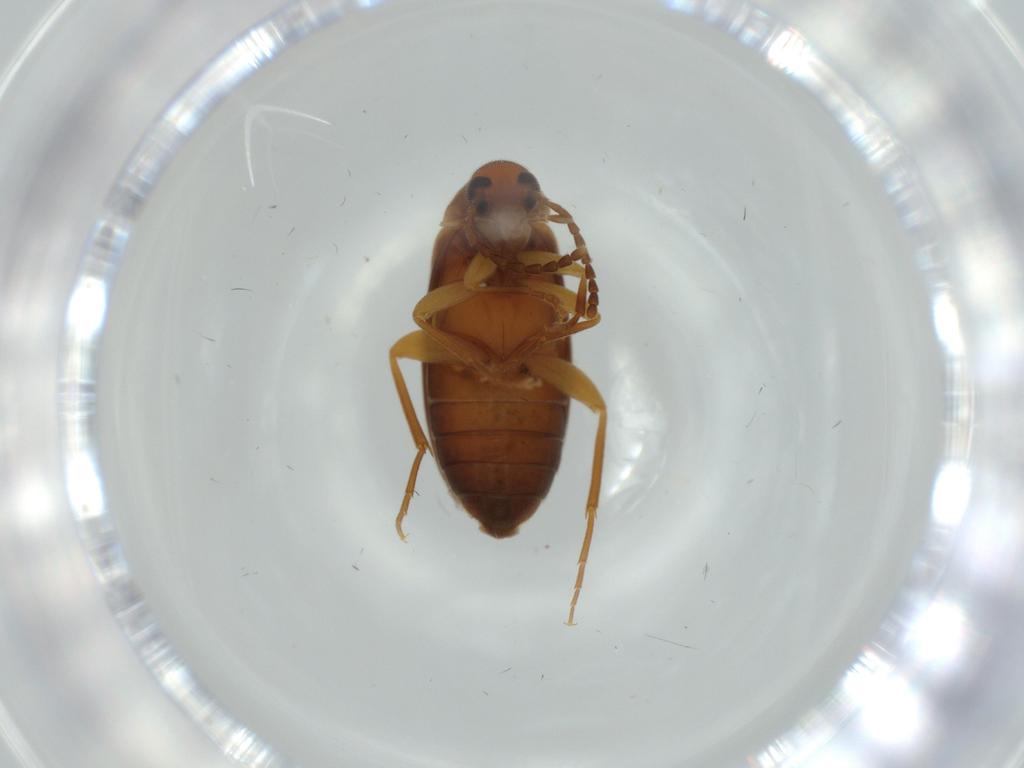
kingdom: Animalia
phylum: Arthropoda
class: Insecta
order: Coleoptera
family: Scraptiidae
